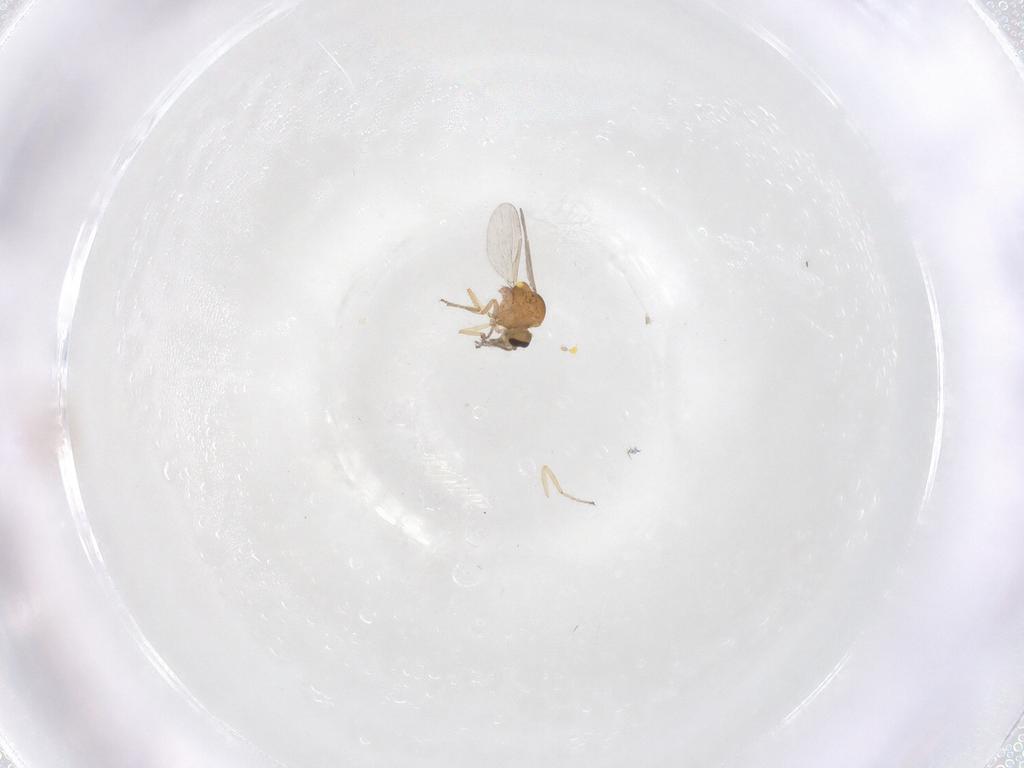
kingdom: Animalia
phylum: Arthropoda
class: Insecta
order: Diptera
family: Ceratopogonidae
